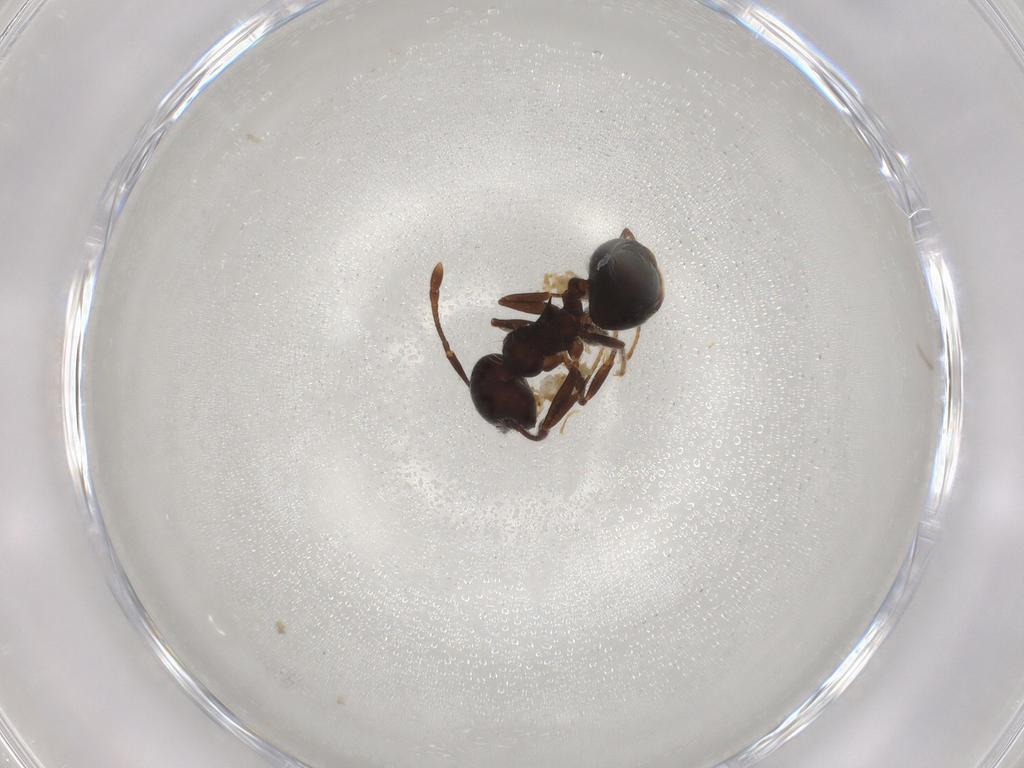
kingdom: Animalia
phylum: Arthropoda
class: Insecta
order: Hymenoptera
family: Formicidae
